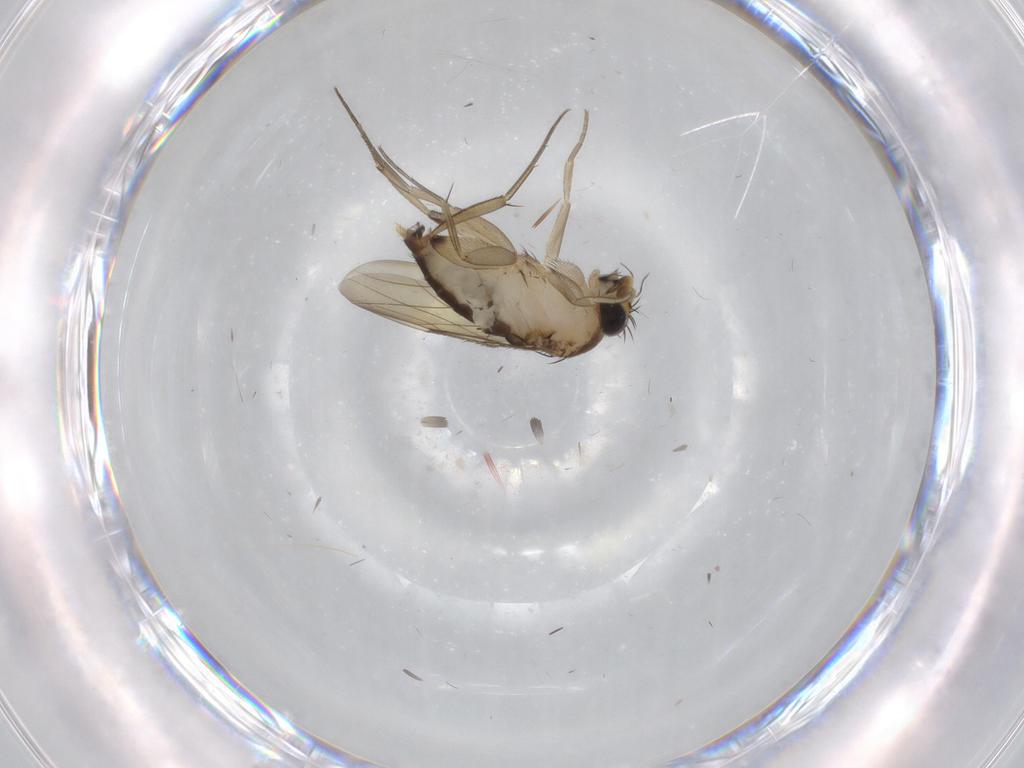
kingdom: Animalia
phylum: Arthropoda
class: Insecta
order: Diptera
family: Phoridae
